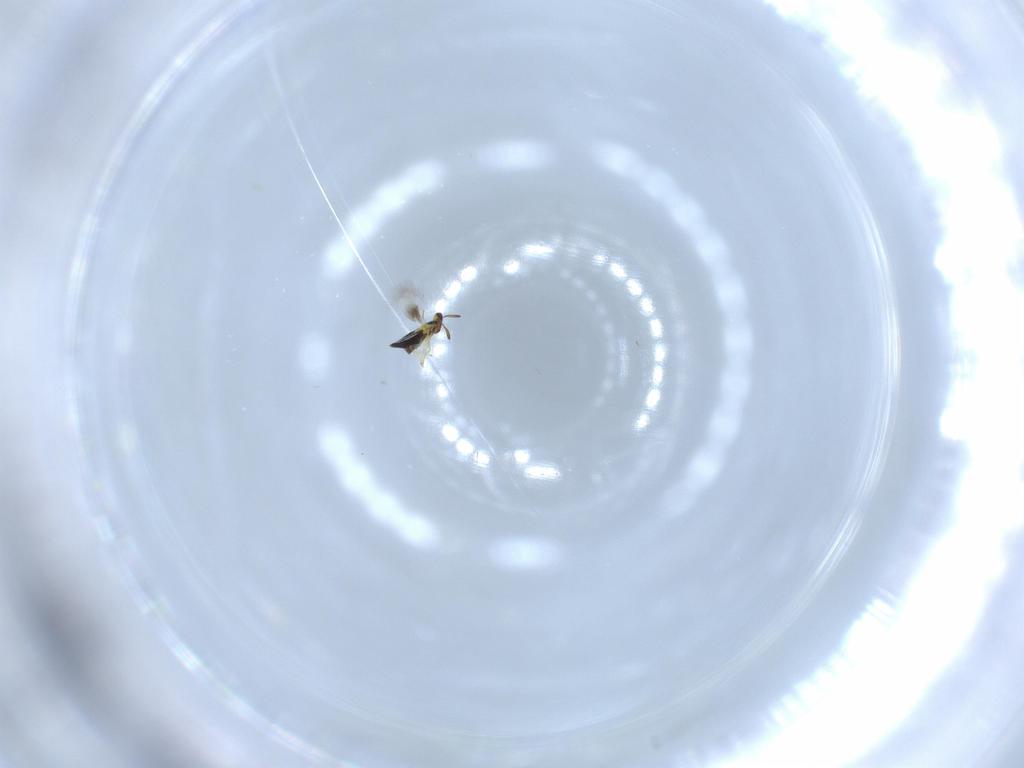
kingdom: Animalia
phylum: Arthropoda
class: Insecta
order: Hymenoptera
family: Signiphoridae
